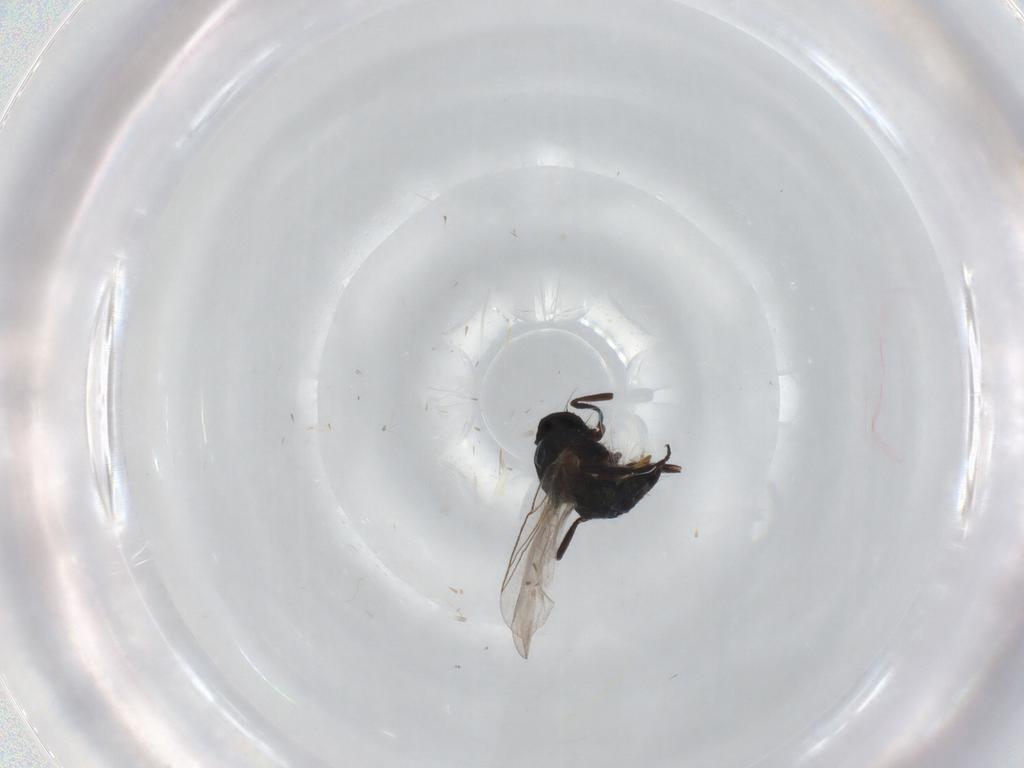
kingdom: Animalia
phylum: Arthropoda
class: Insecta
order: Diptera
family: Calliphoridae
